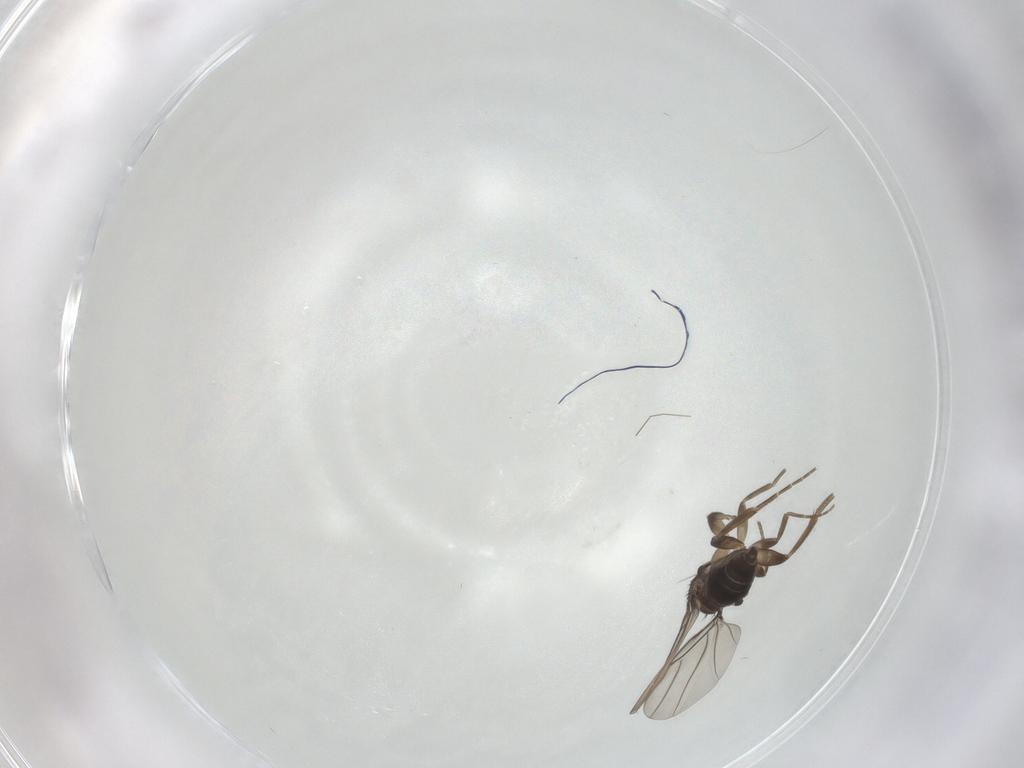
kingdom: Animalia
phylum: Arthropoda
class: Insecta
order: Diptera
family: Phoridae
